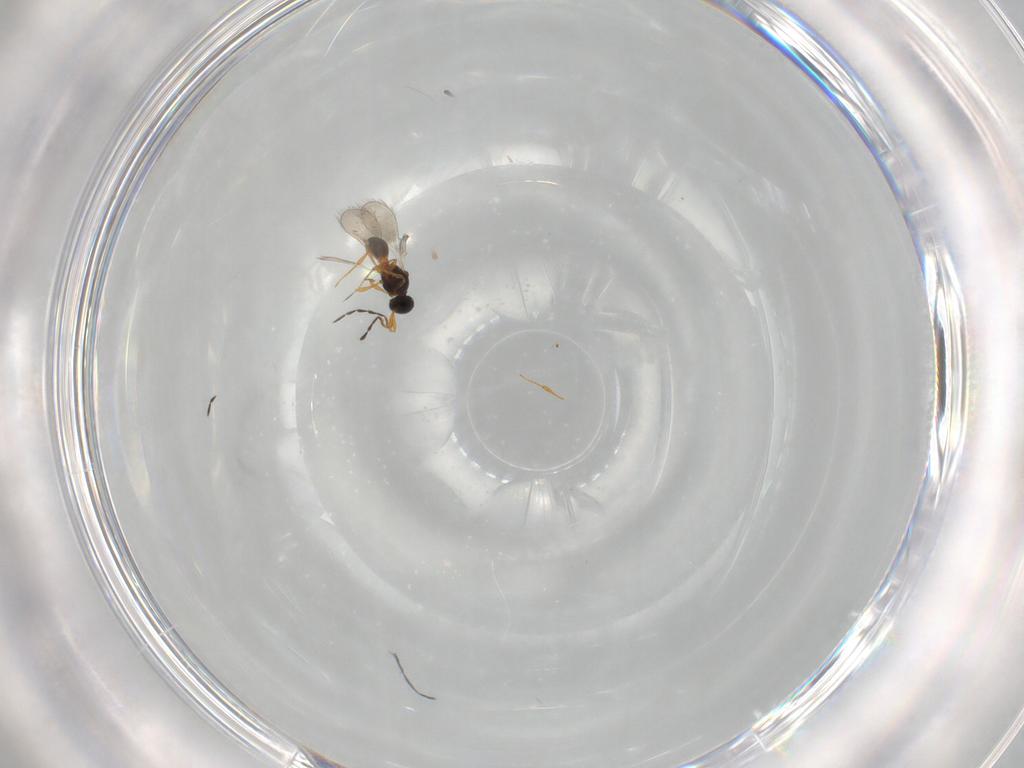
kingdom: Animalia
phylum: Arthropoda
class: Insecta
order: Hymenoptera
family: Platygastridae
